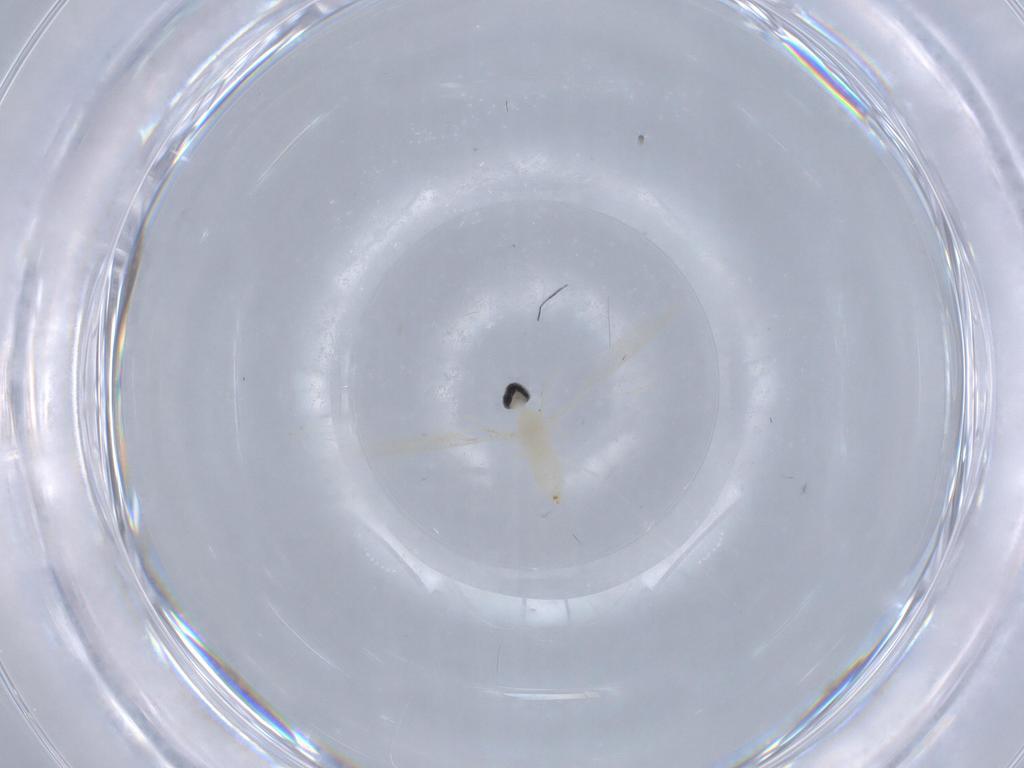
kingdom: Animalia
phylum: Arthropoda
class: Insecta
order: Diptera
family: Cecidomyiidae
